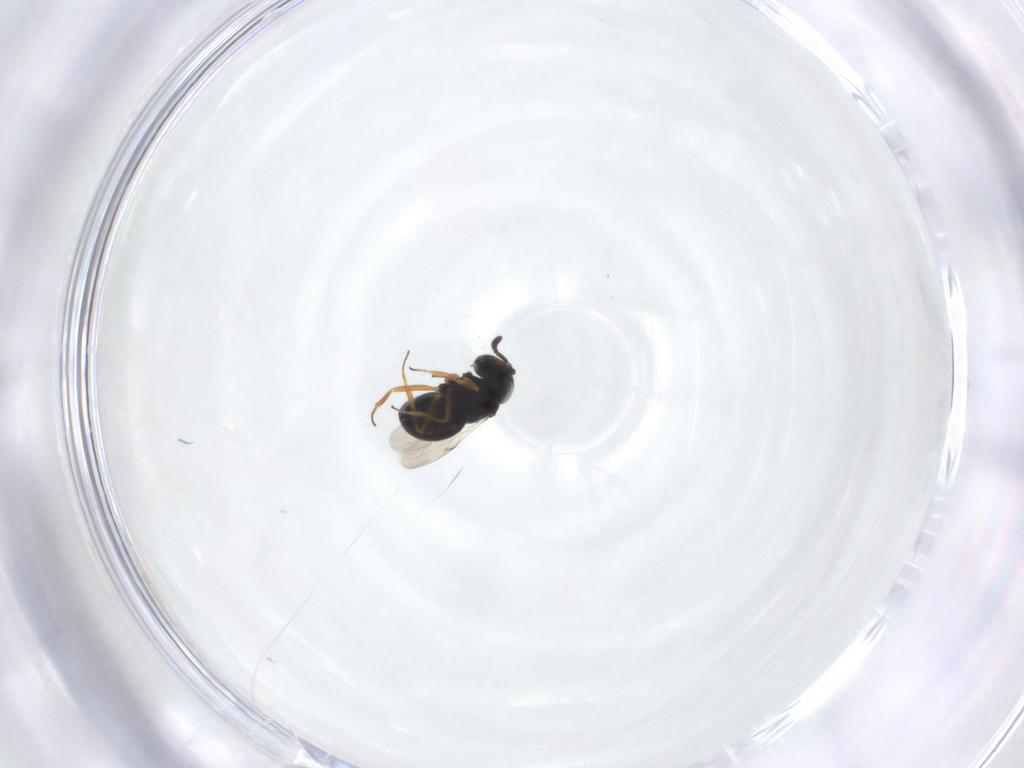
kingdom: Animalia
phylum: Arthropoda
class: Insecta
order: Hymenoptera
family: Scelionidae
